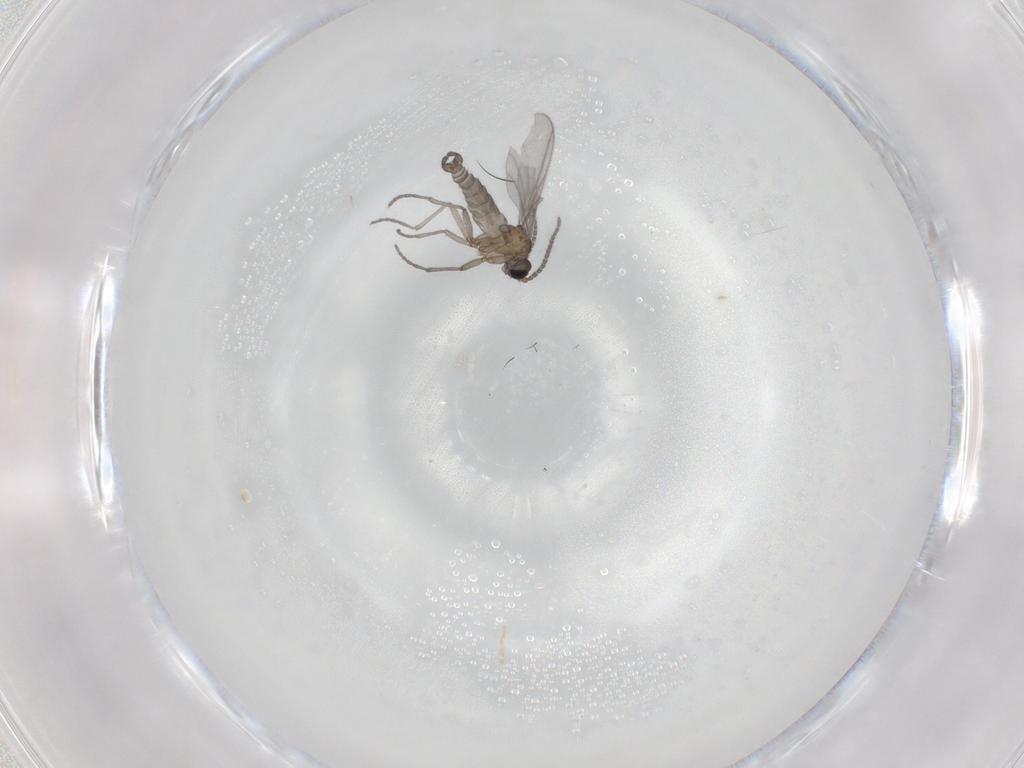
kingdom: Animalia
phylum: Arthropoda
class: Insecta
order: Diptera
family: Sciaridae
